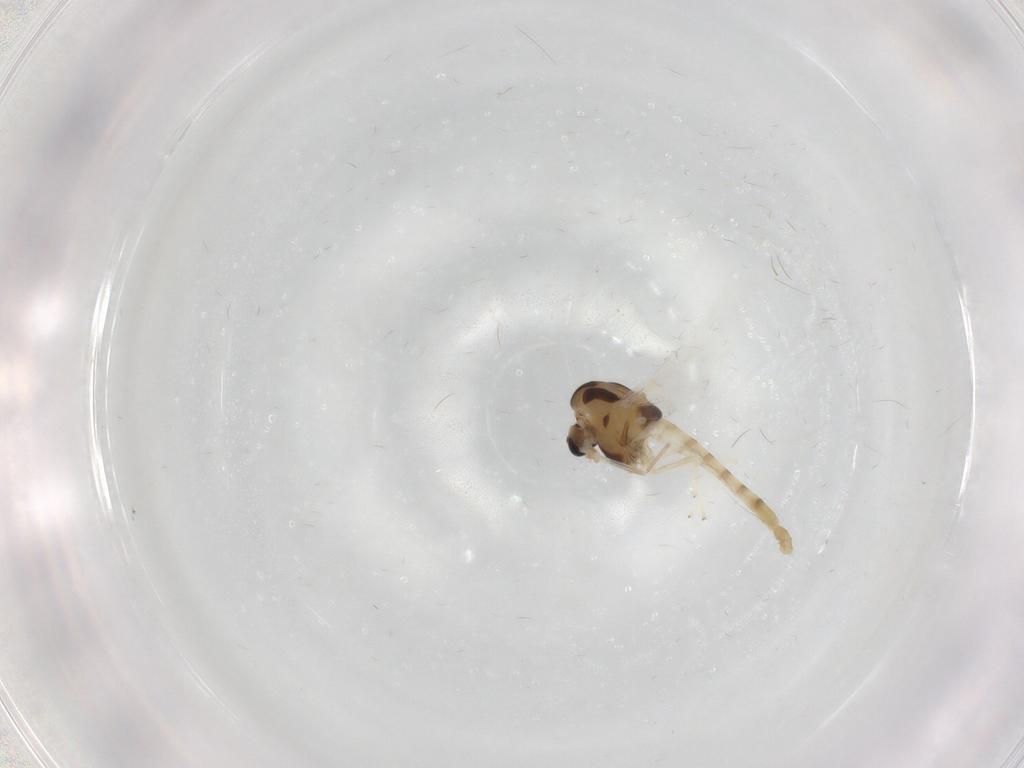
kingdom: Animalia
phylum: Arthropoda
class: Insecta
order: Diptera
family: Chironomidae
